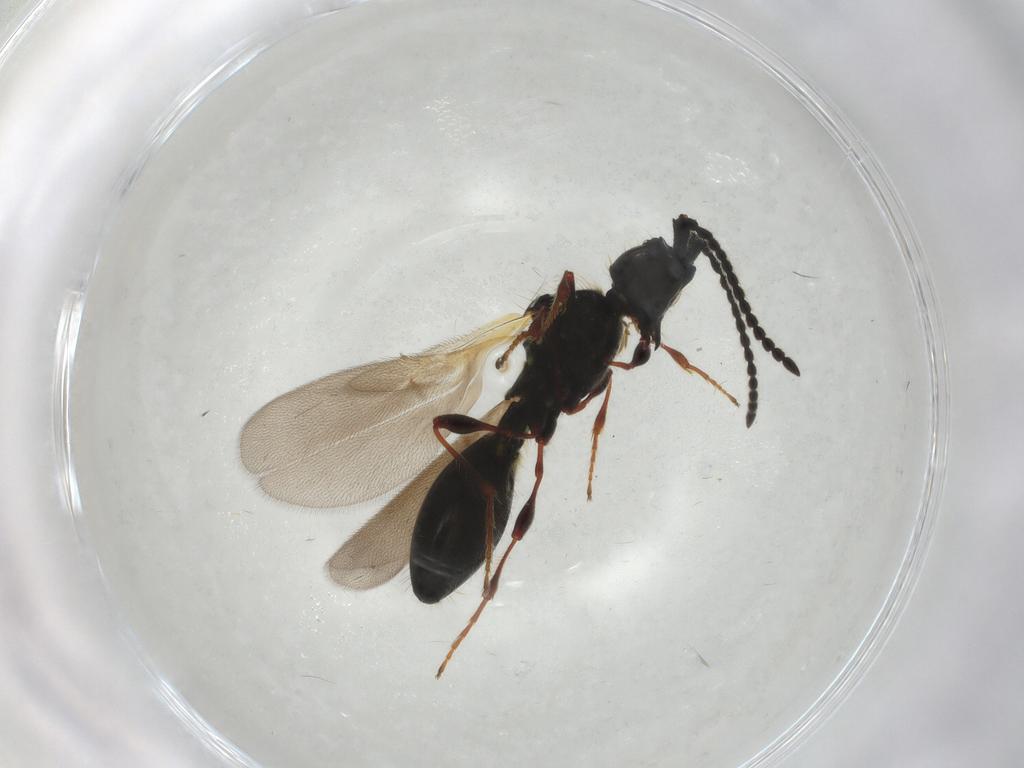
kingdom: Animalia
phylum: Arthropoda
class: Insecta
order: Hymenoptera
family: Diapriidae
